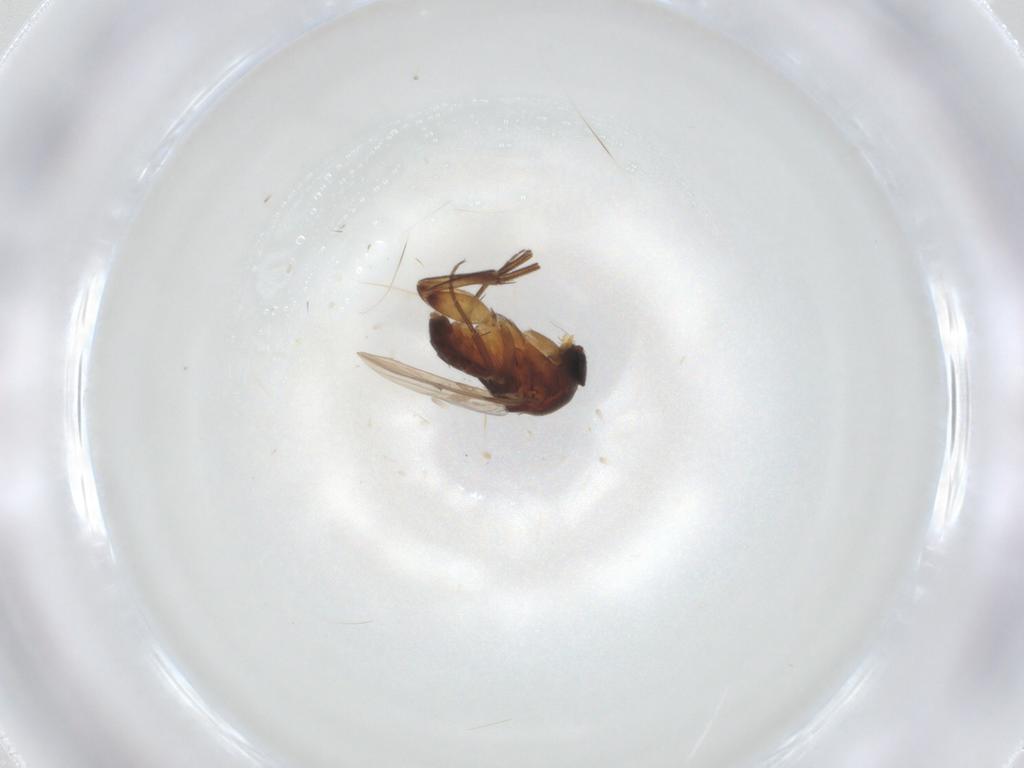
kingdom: Animalia
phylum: Arthropoda
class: Insecta
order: Diptera
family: Phoridae
